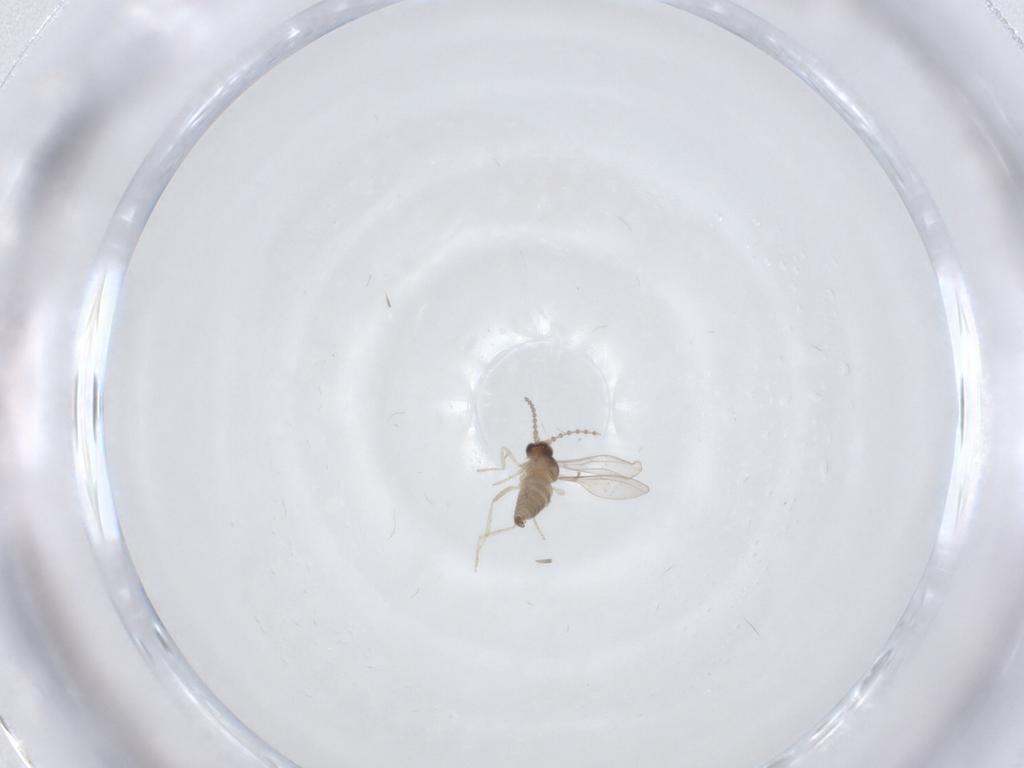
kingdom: Animalia
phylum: Arthropoda
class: Insecta
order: Diptera
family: Cecidomyiidae
